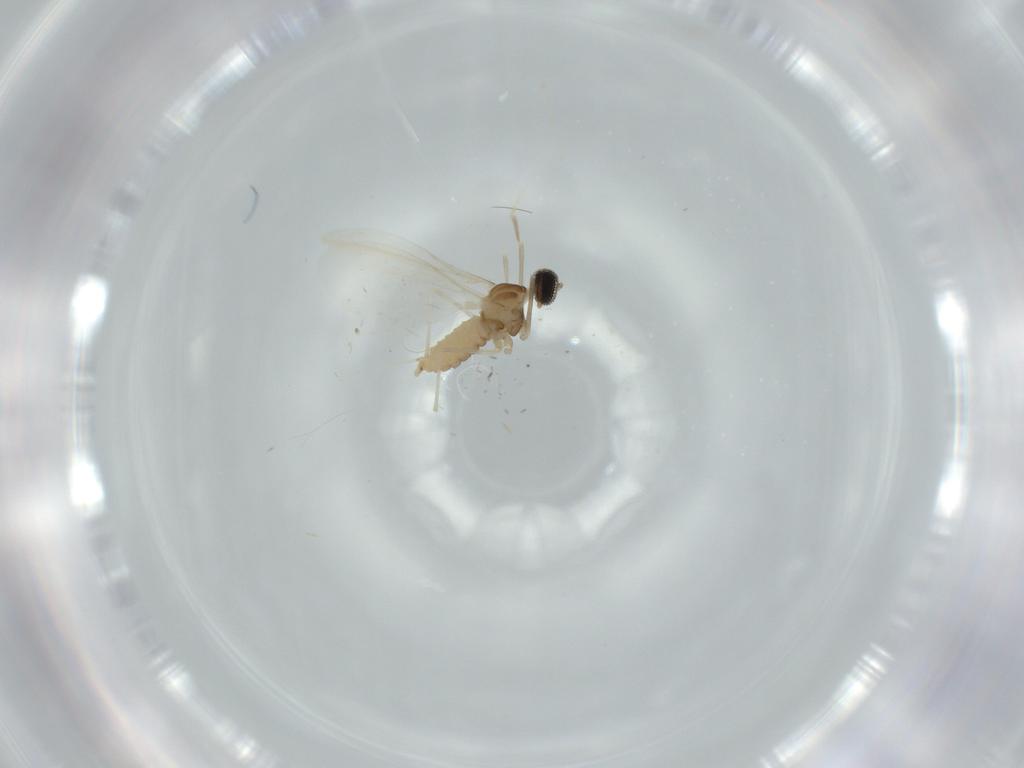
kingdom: Animalia
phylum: Arthropoda
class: Insecta
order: Diptera
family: Cecidomyiidae
